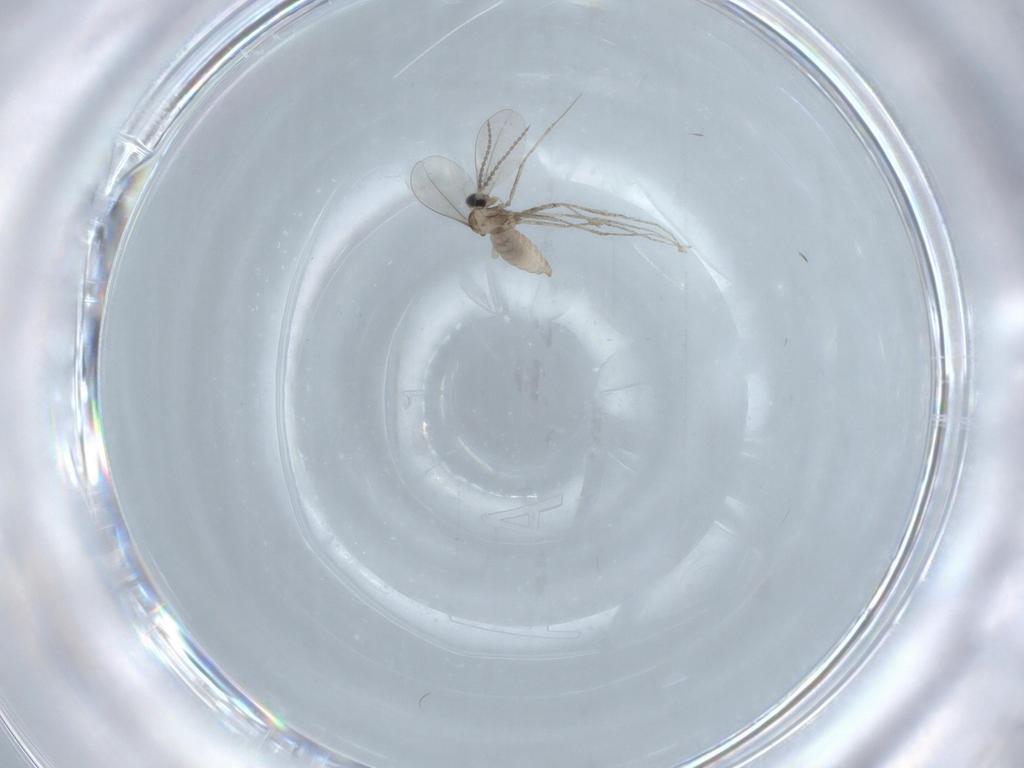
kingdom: Animalia
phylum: Arthropoda
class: Insecta
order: Diptera
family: Cecidomyiidae
